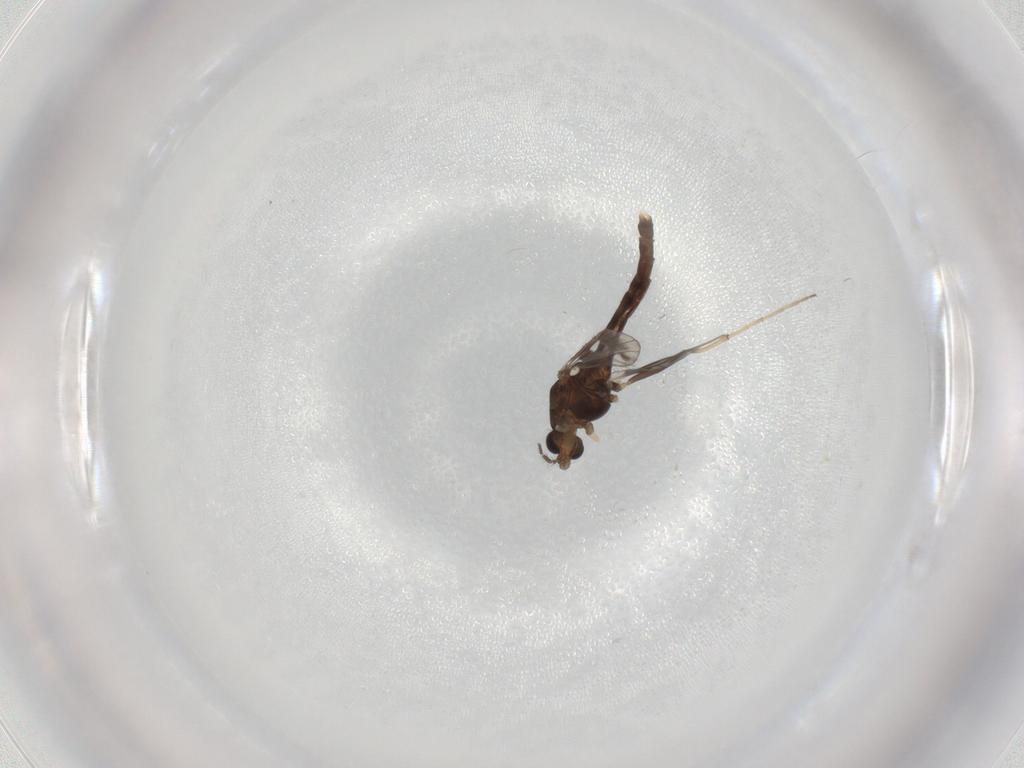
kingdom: Animalia
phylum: Arthropoda
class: Insecta
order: Diptera
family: Chironomidae
